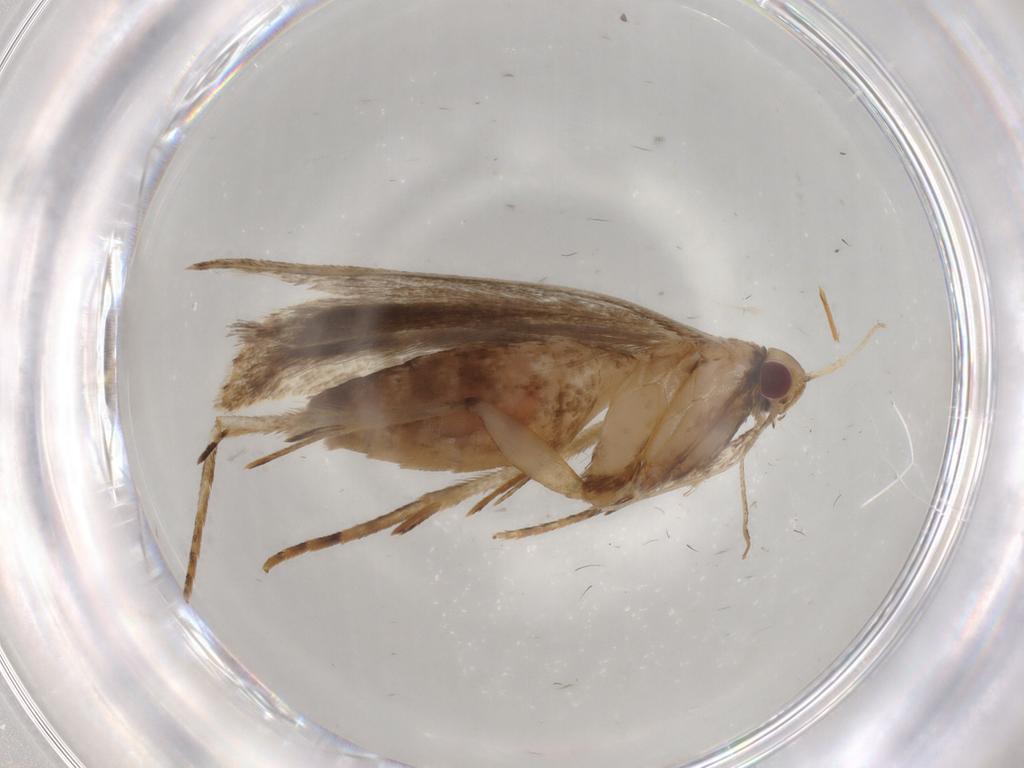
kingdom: Animalia
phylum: Arthropoda
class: Insecta
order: Lepidoptera
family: Gelechiidae
